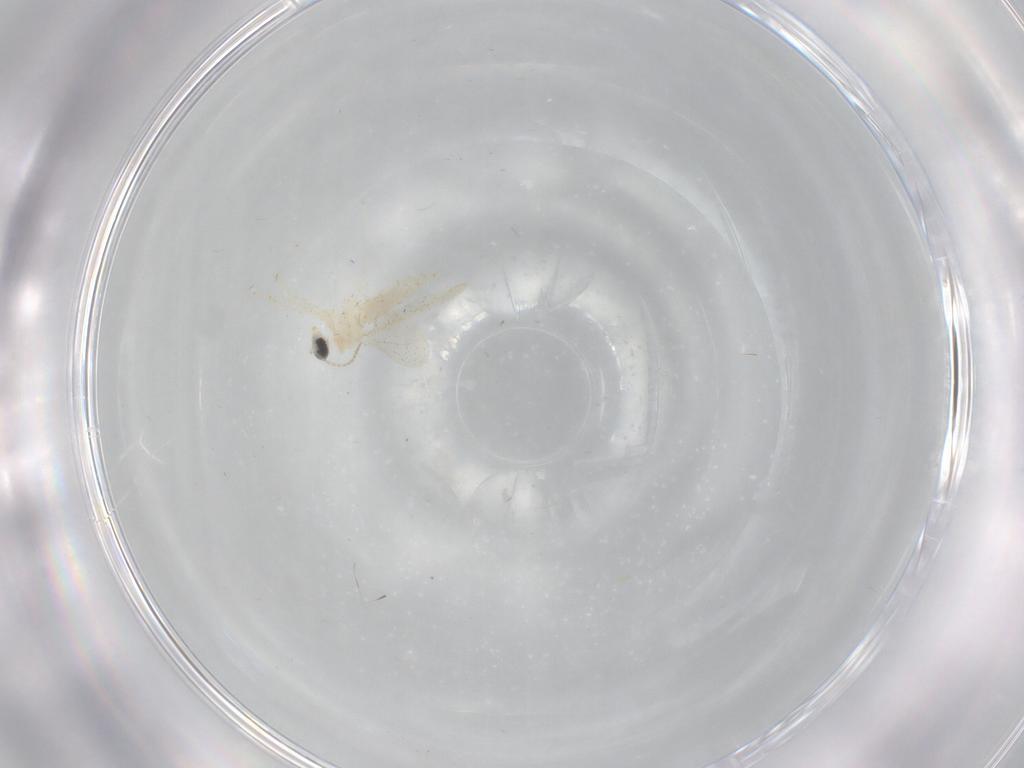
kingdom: Animalia
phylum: Arthropoda
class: Insecta
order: Diptera
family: Cecidomyiidae
